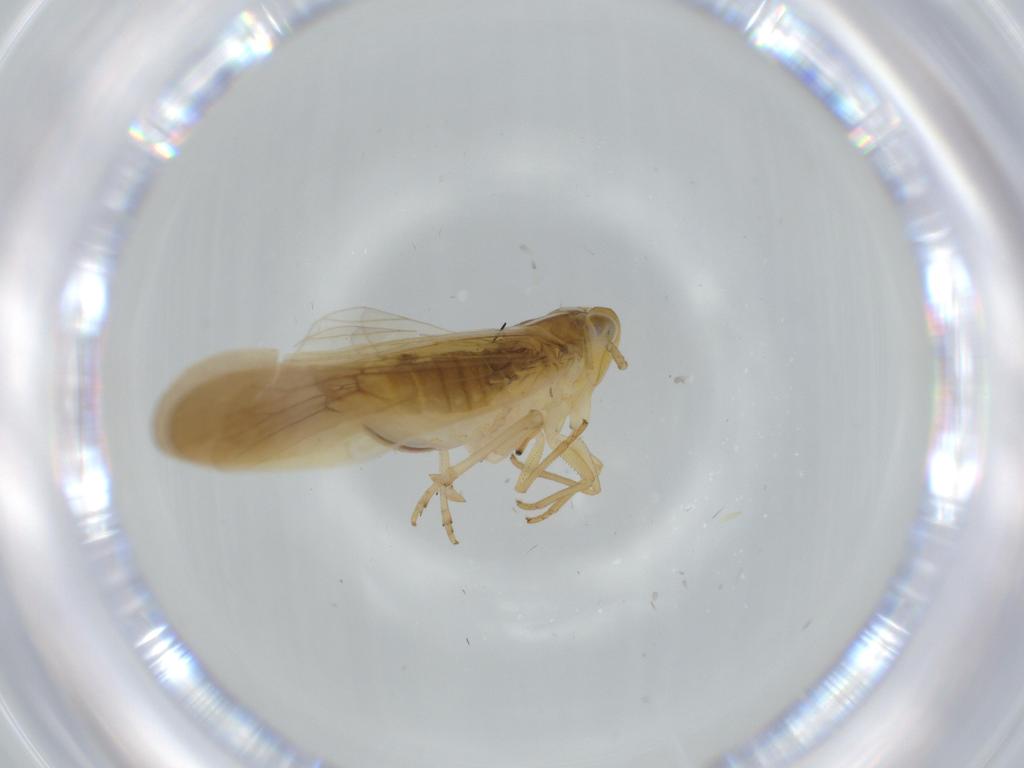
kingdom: Animalia
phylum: Arthropoda
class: Insecta
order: Hemiptera
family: Delphacidae
